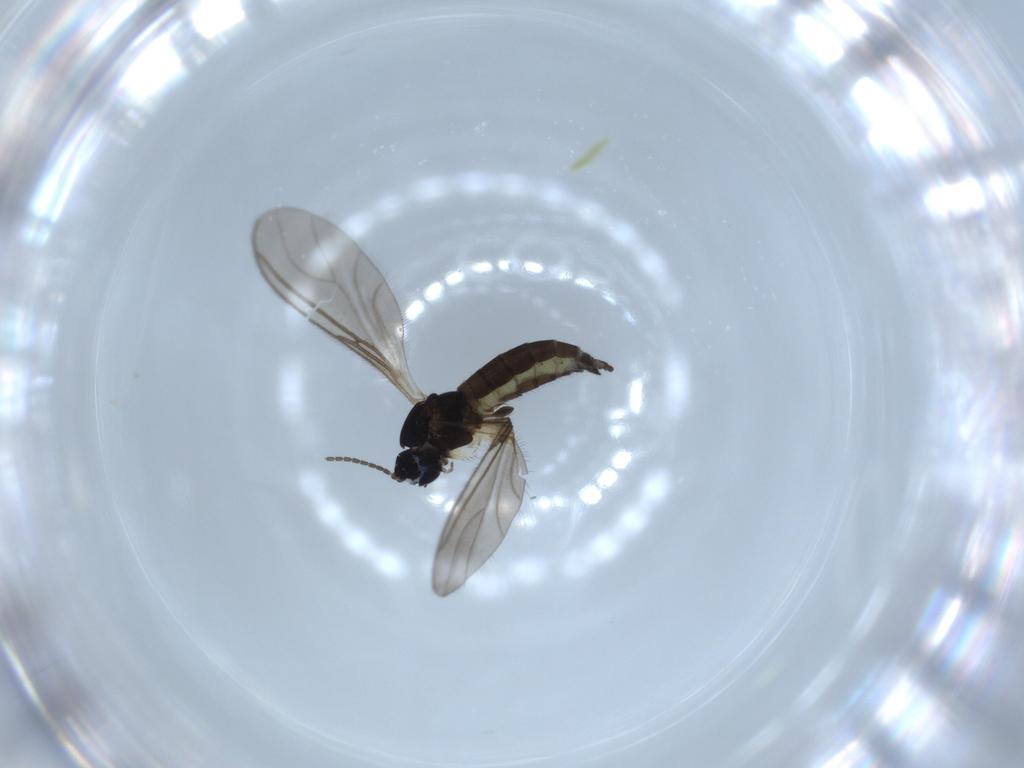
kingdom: Animalia
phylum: Arthropoda
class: Insecta
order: Diptera
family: Sciaridae
